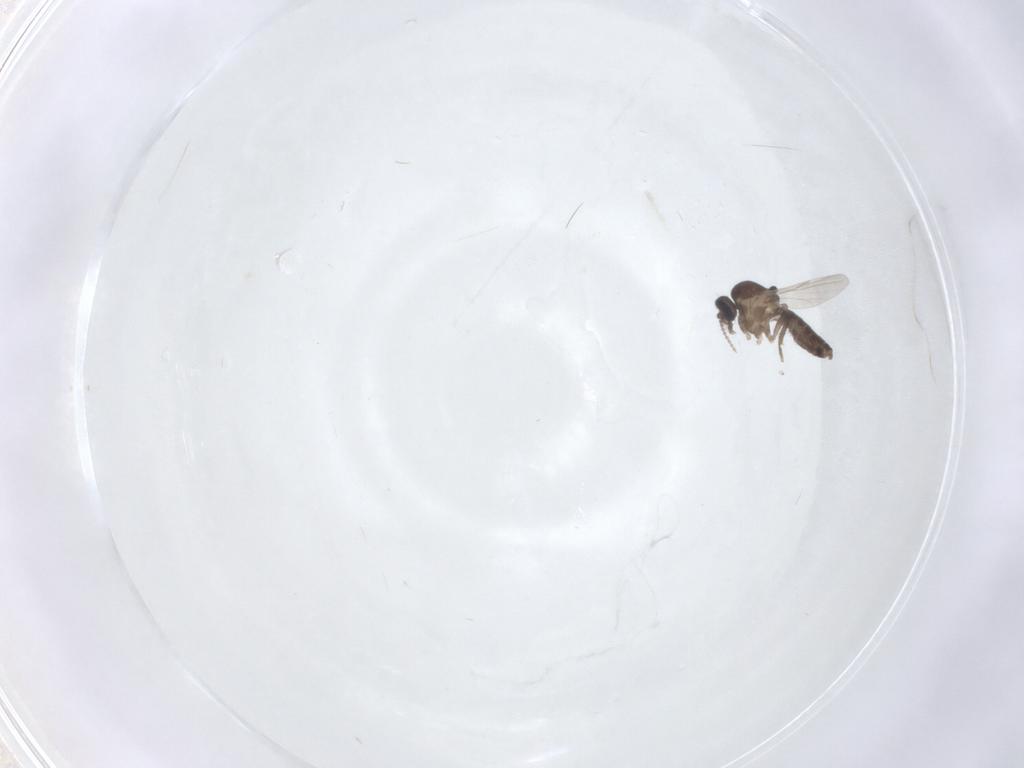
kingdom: Animalia
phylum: Arthropoda
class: Insecta
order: Diptera
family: Ceratopogonidae
